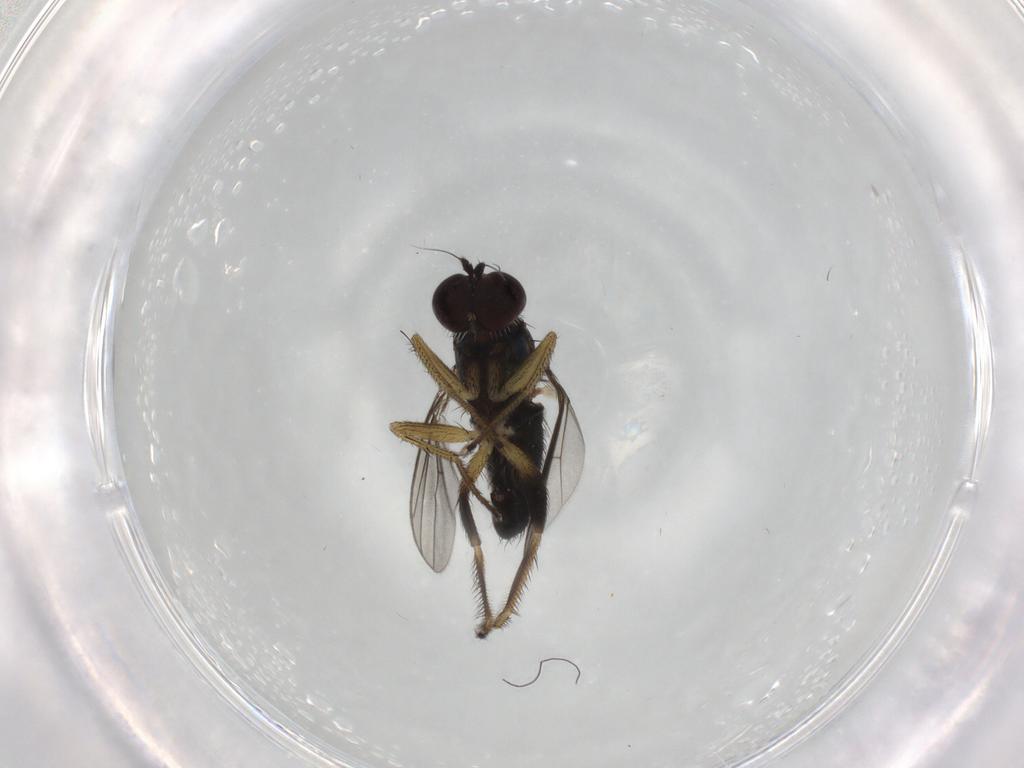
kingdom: Animalia
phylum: Arthropoda
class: Insecta
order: Diptera
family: Dolichopodidae
